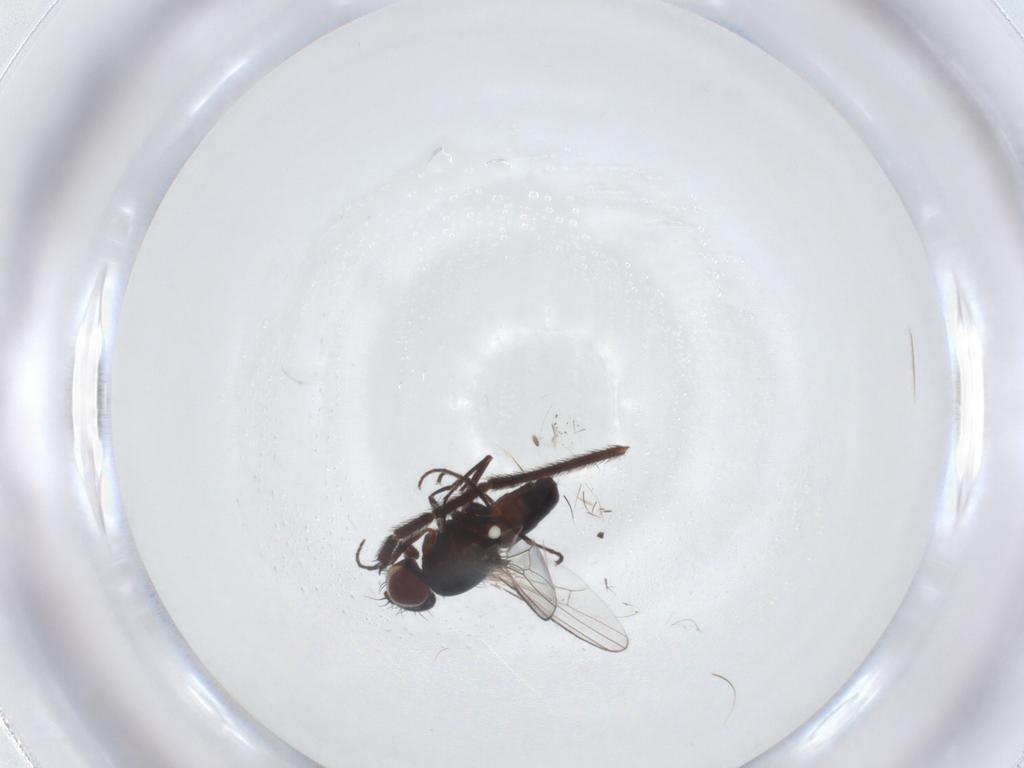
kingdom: Animalia
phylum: Arthropoda
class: Insecta
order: Diptera
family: Carnidae
